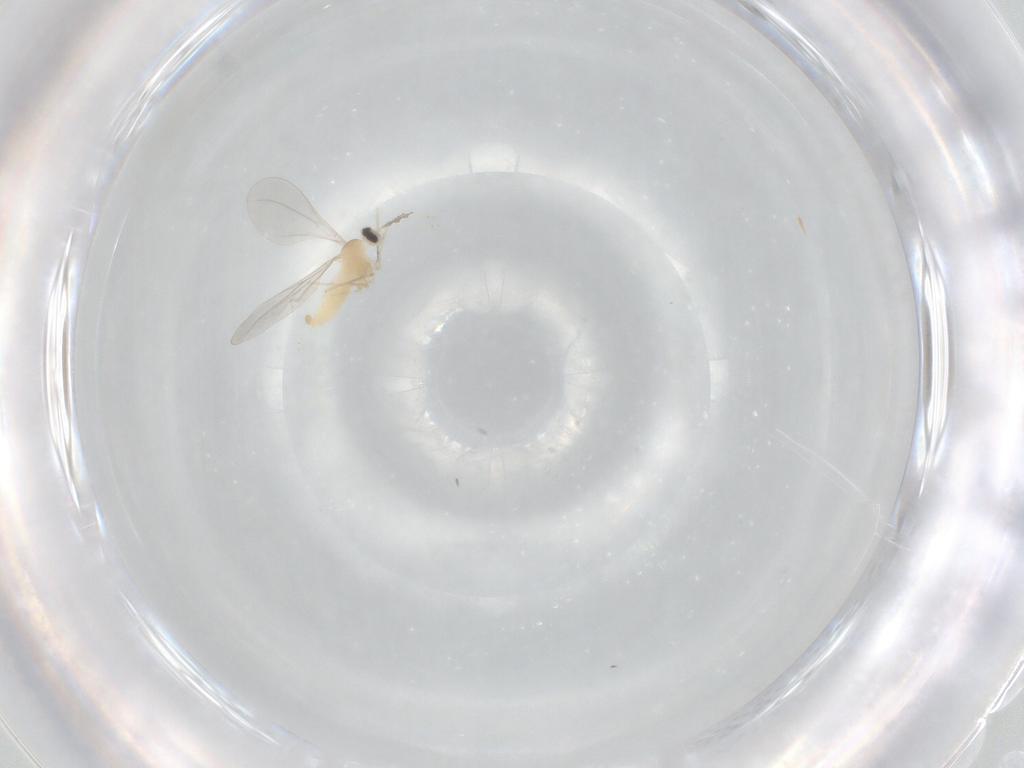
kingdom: Animalia
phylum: Arthropoda
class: Insecta
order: Diptera
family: Cecidomyiidae
